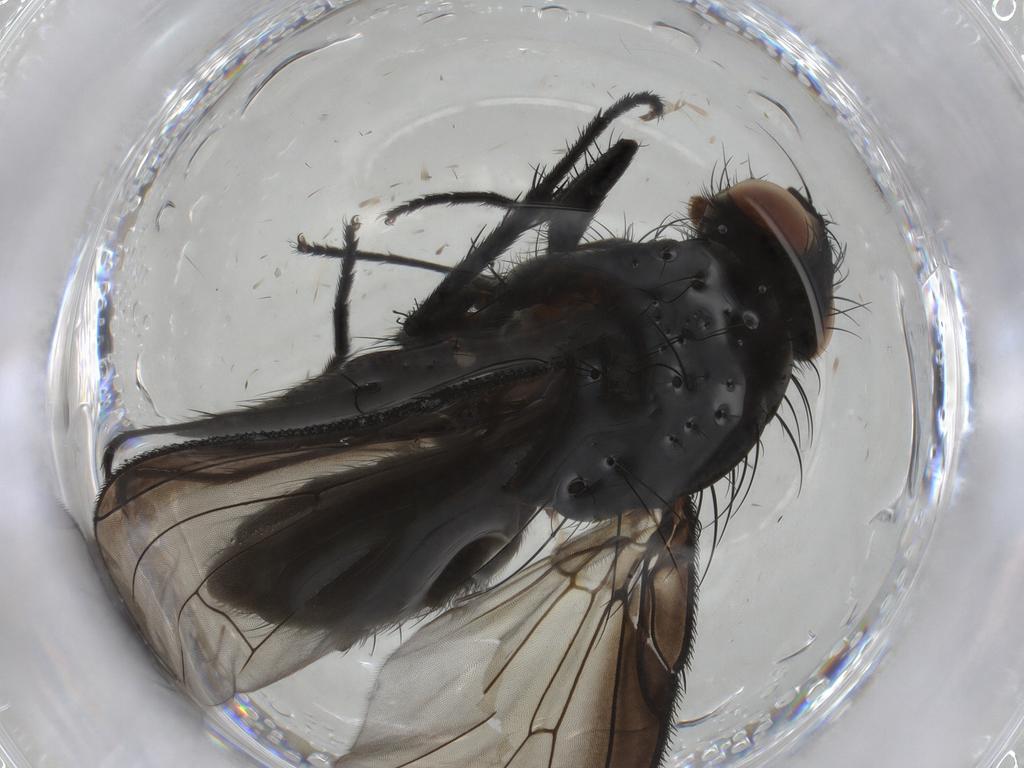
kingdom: Animalia
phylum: Arthropoda
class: Insecta
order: Diptera
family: Anthomyiidae
